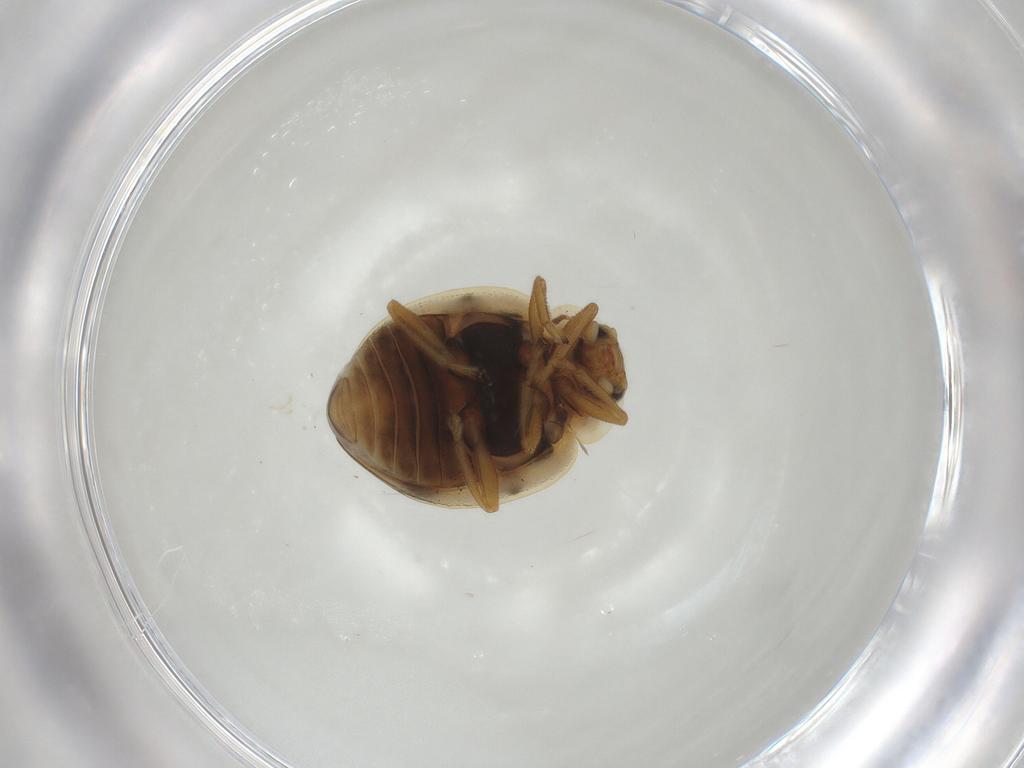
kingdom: Animalia
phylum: Arthropoda
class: Insecta
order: Coleoptera
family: Coccinellidae
